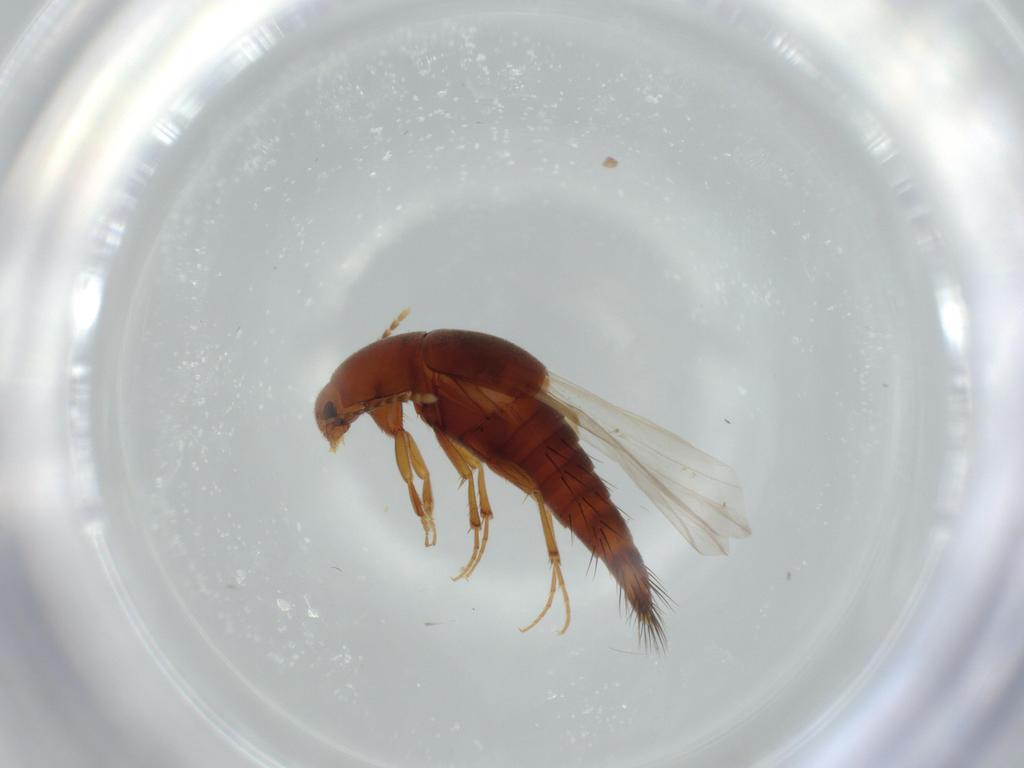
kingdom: Animalia
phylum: Arthropoda
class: Insecta
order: Coleoptera
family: Staphylinidae
